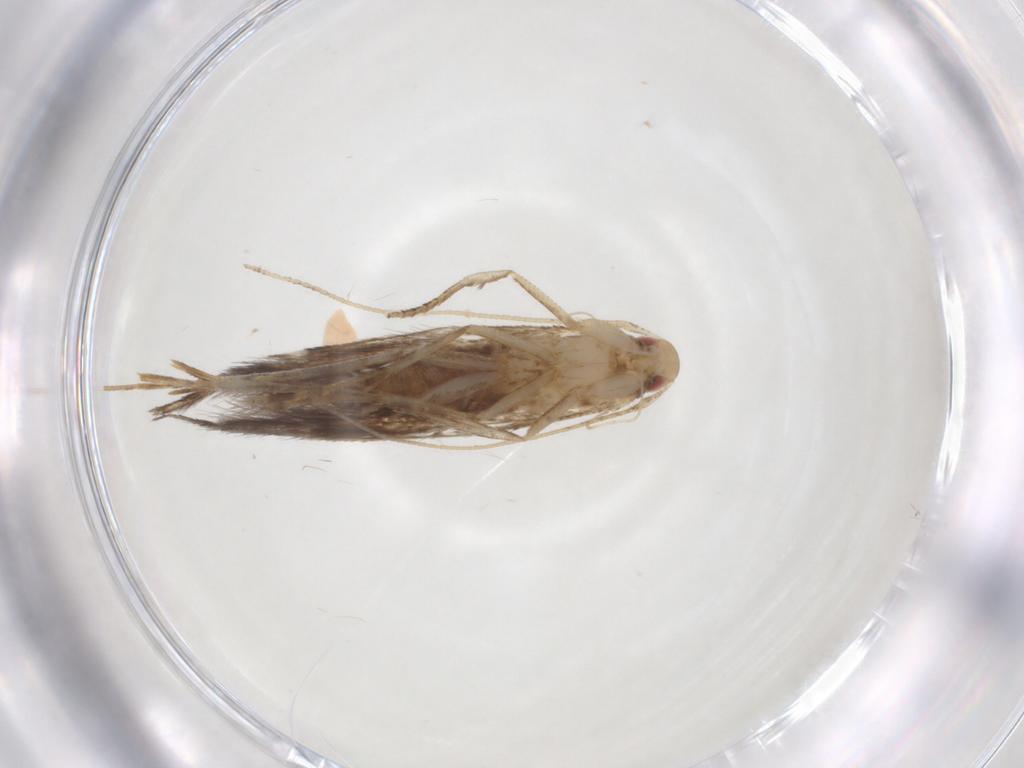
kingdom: Animalia
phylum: Arthropoda
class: Insecta
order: Lepidoptera
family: Cosmopterigidae
